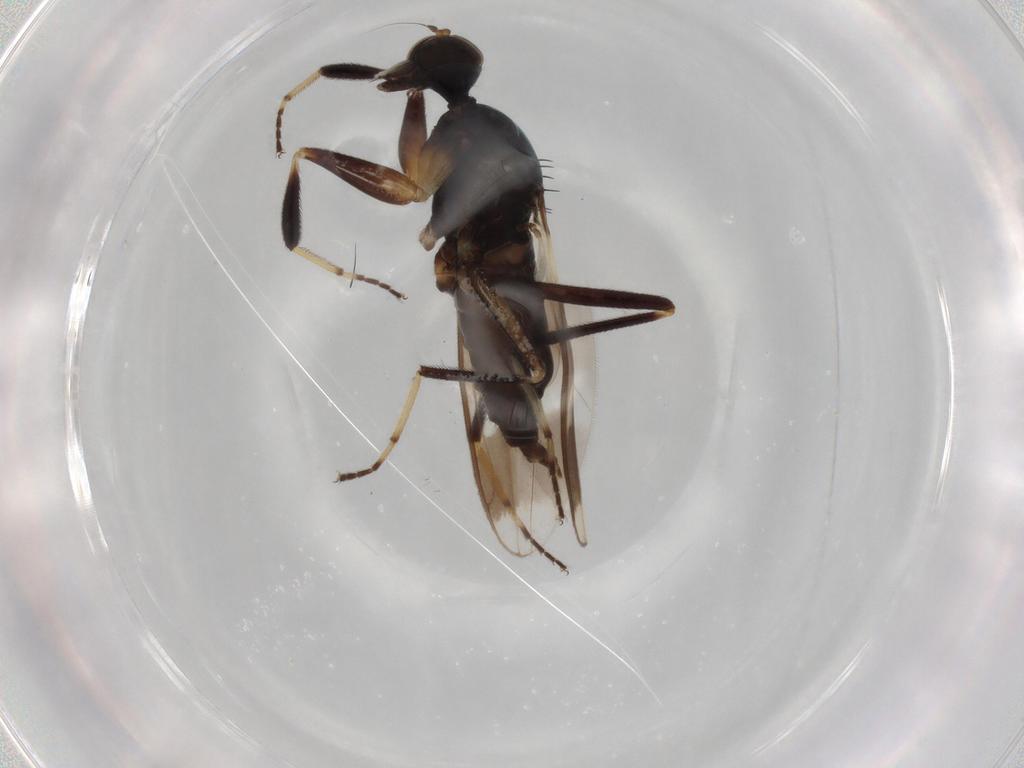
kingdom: Animalia
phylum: Arthropoda
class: Insecta
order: Diptera
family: Hybotidae
